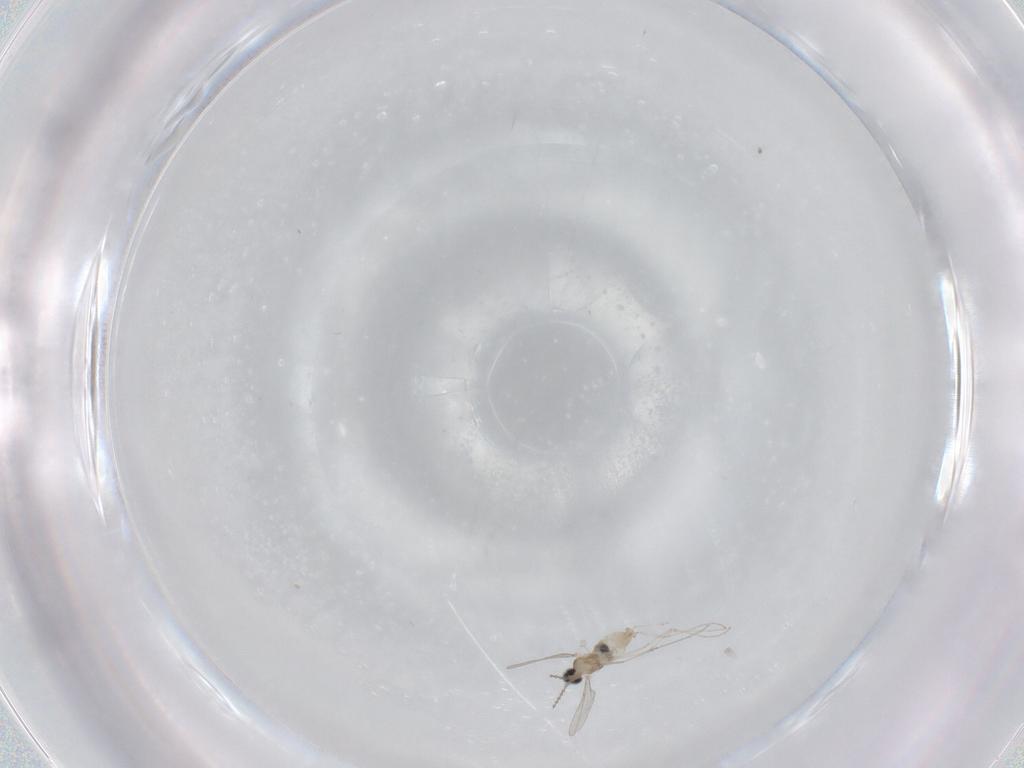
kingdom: Animalia
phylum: Arthropoda
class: Insecta
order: Diptera
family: Cecidomyiidae
